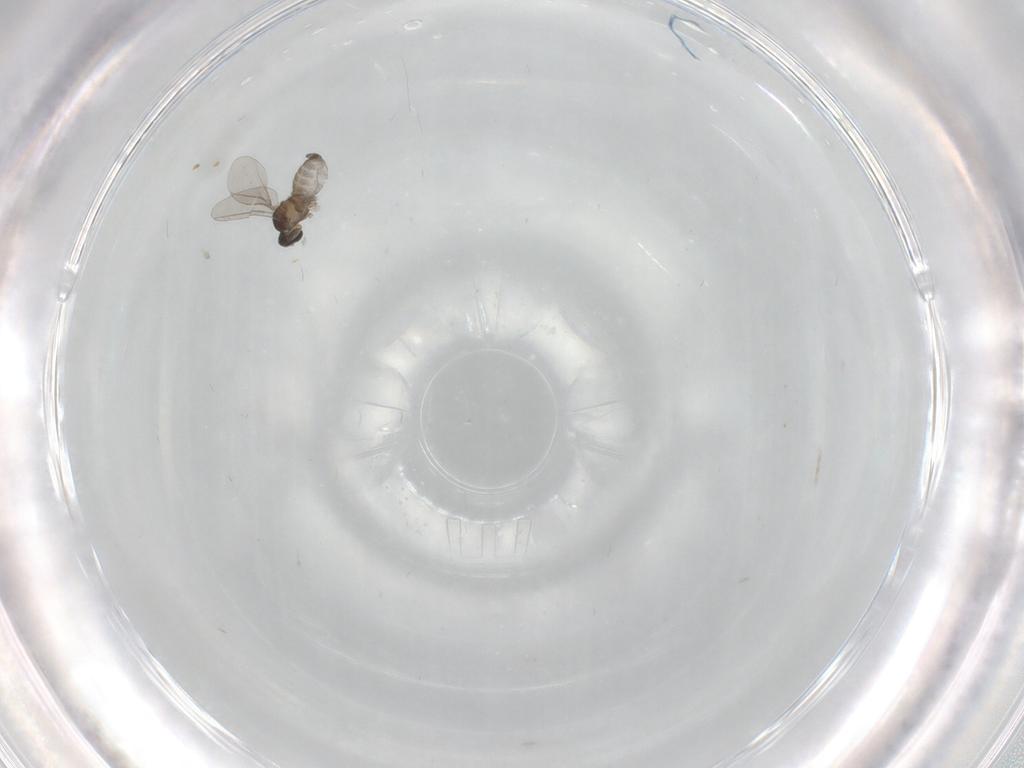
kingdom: Animalia
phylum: Arthropoda
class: Insecta
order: Diptera
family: Cecidomyiidae
